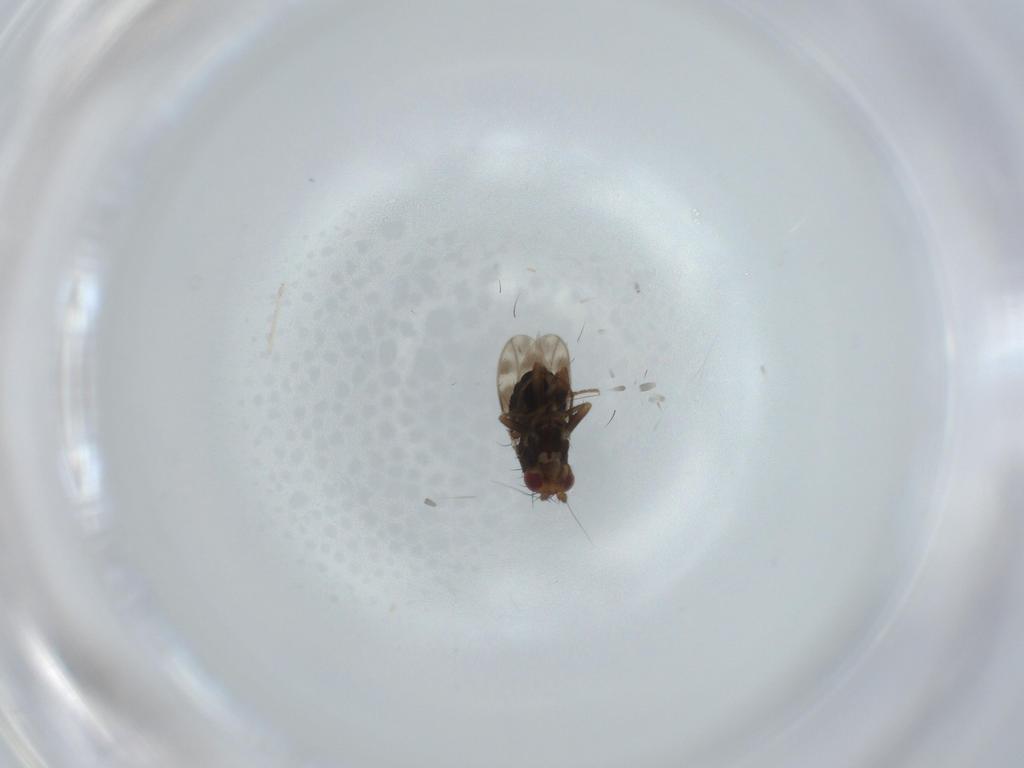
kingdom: Animalia
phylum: Arthropoda
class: Insecta
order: Diptera
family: Sphaeroceridae
